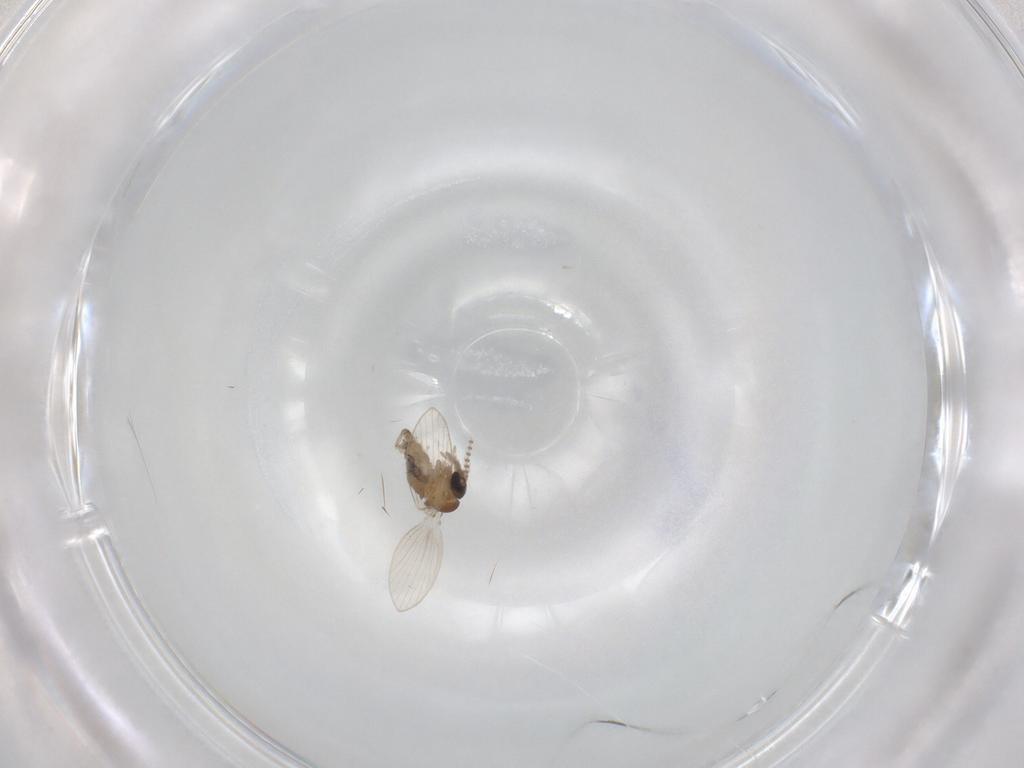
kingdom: Animalia
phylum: Arthropoda
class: Insecta
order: Diptera
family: Psychodidae
